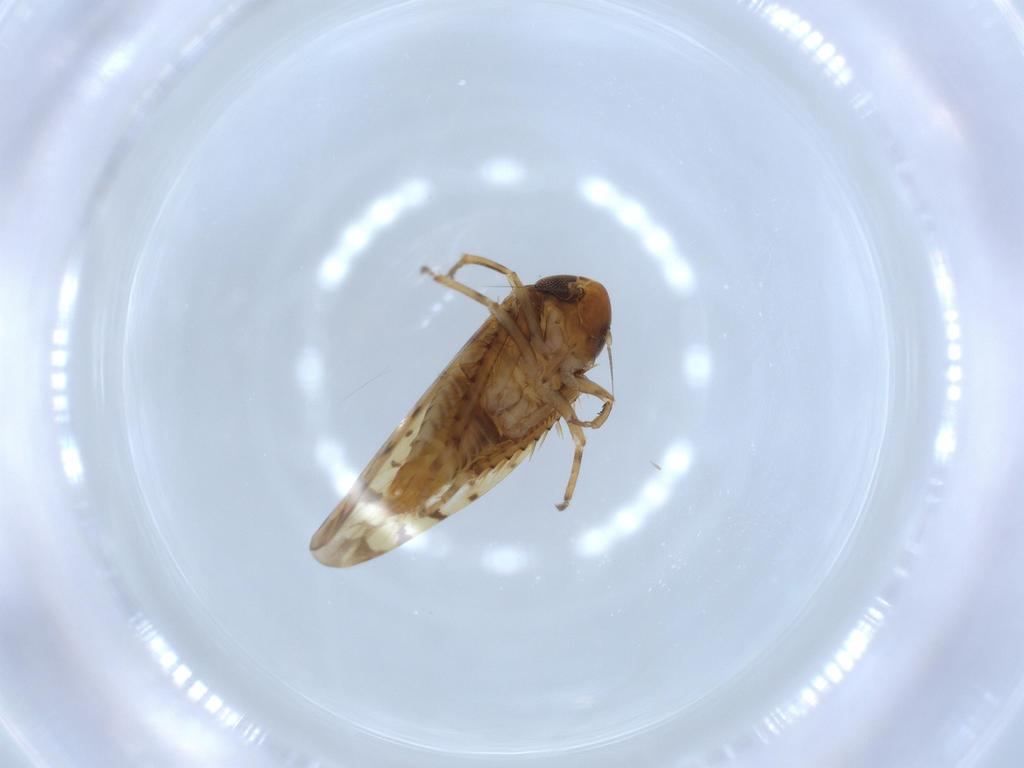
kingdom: Animalia
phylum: Arthropoda
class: Insecta
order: Hemiptera
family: Cicadellidae
